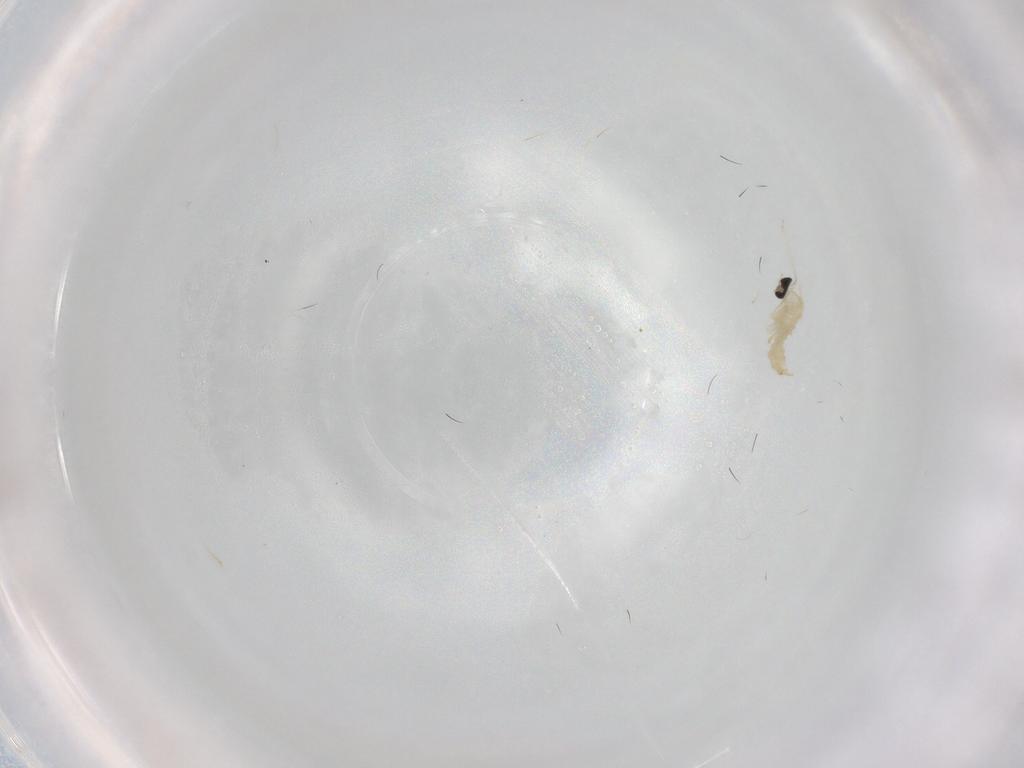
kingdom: Animalia
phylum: Arthropoda
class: Insecta
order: Diptera
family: Cecidomyiidae
